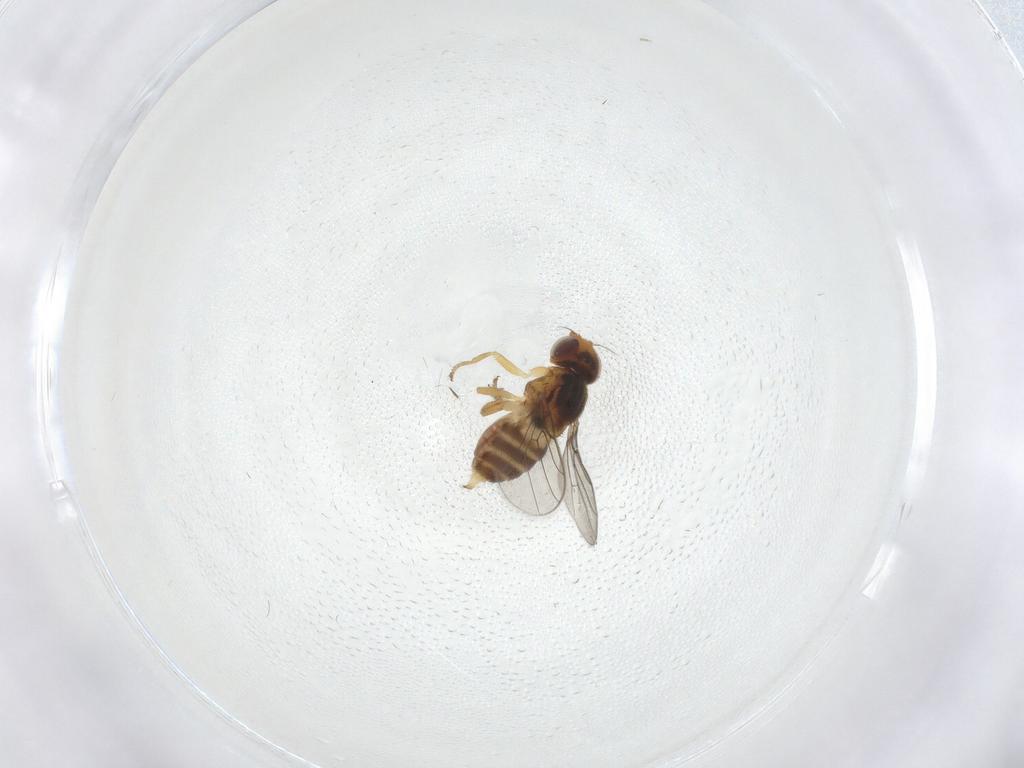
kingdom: Animalia
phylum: Arthropoda
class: Insecta
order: Diptera
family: Chloropidae
